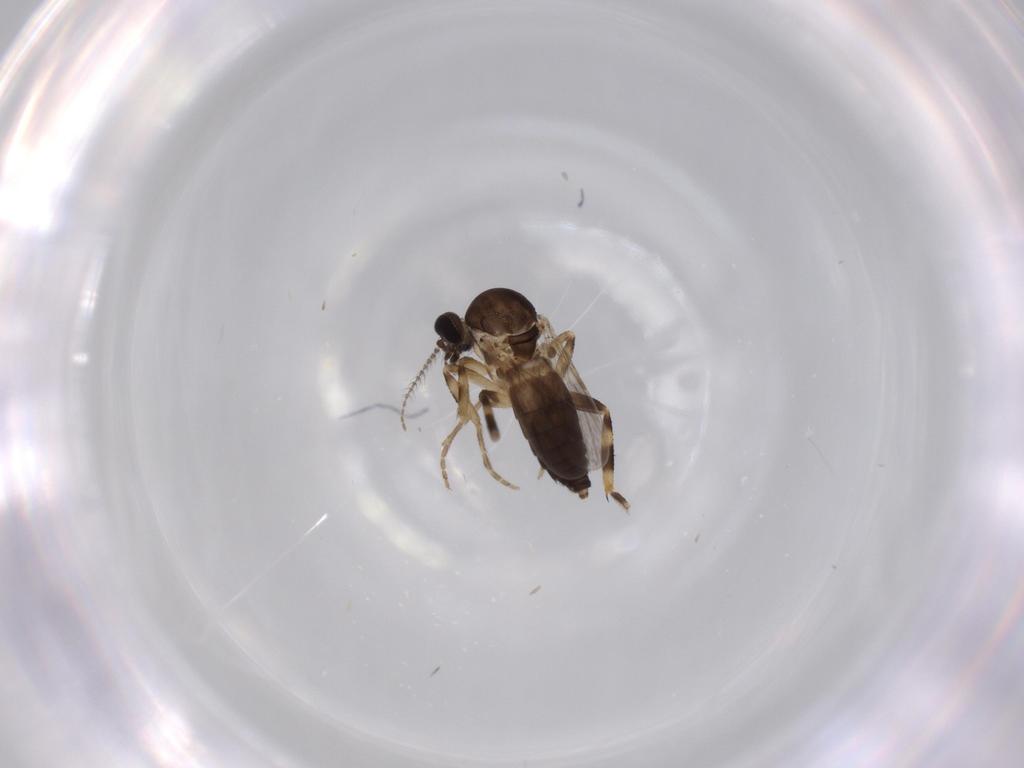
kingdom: Animalia
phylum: Arthropoda
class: Insecta
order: Diptera
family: Ceratopogonidae
